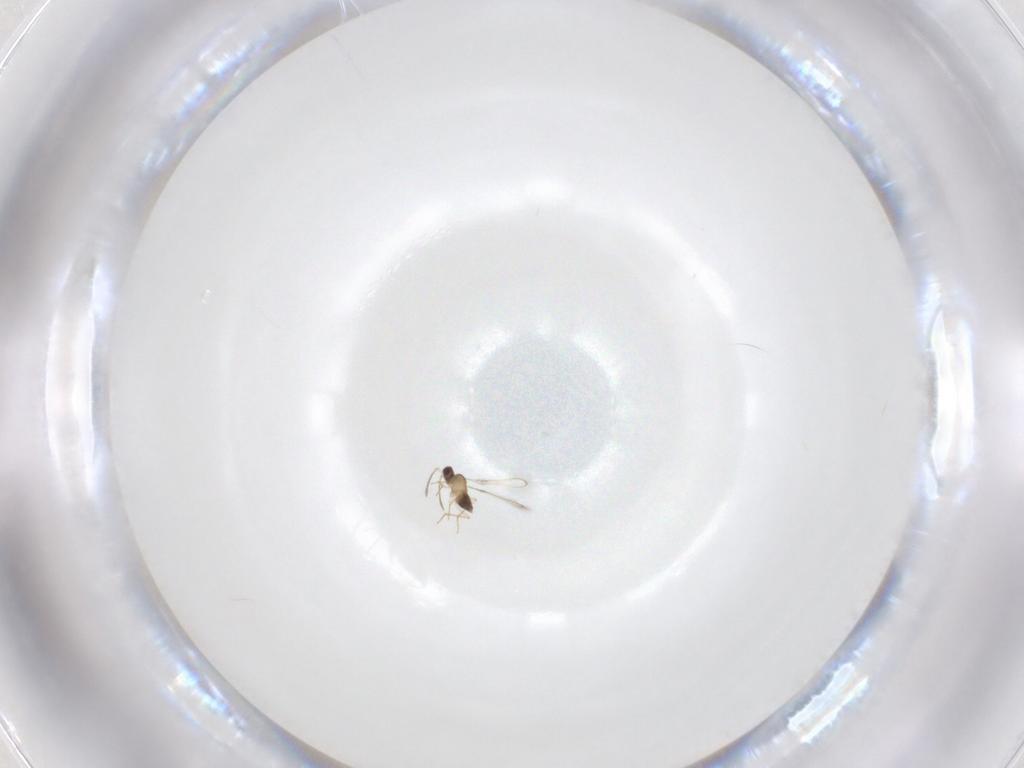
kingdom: Animalia
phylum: Arthropoda
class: Insecta
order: Hymenoptera
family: Mymaridae
